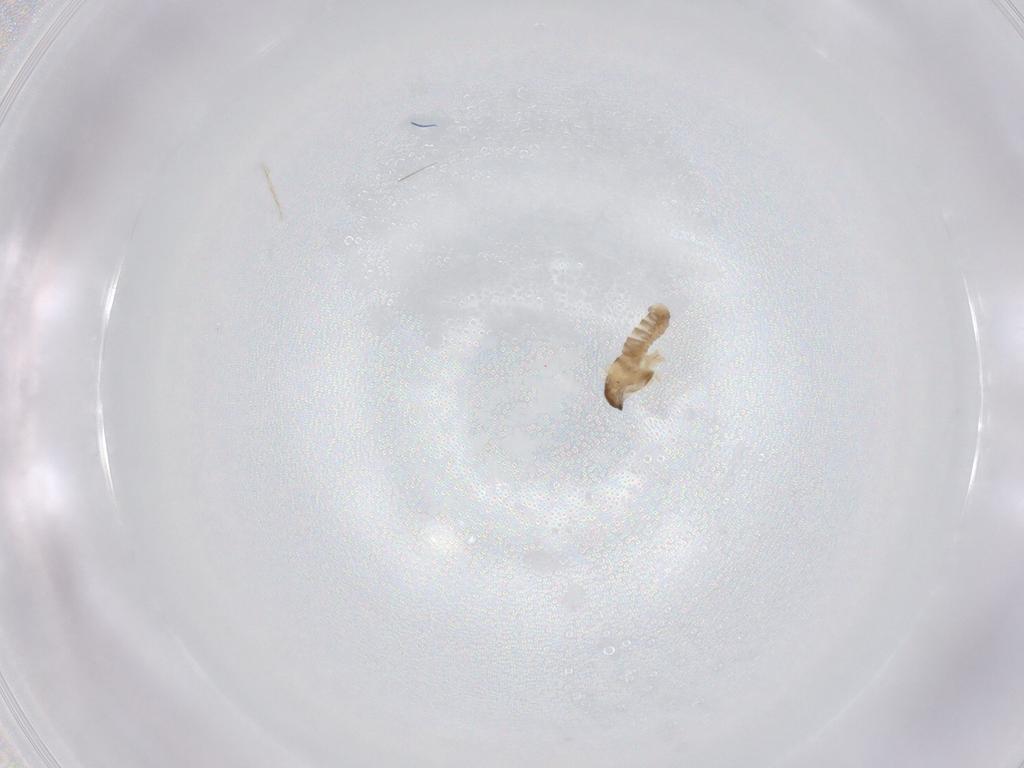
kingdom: Animalia
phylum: Arthropoda
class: Insecta
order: Diptera
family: Cecidomyiidae
